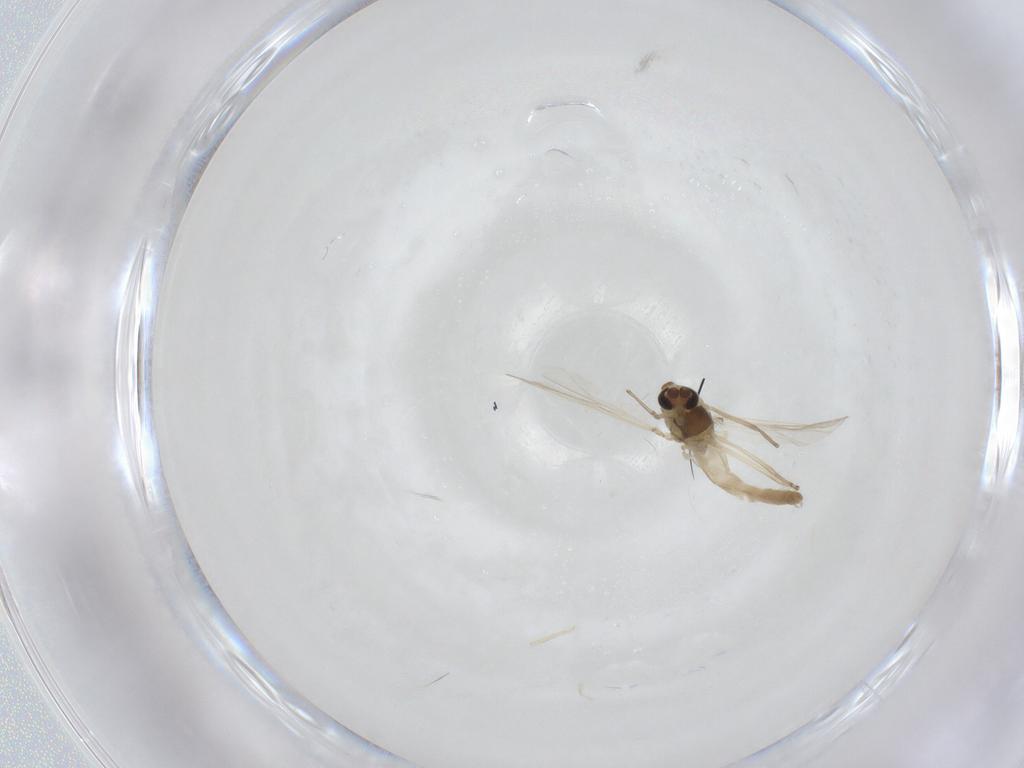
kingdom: Animalia
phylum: Arthropoda
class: Insecta
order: Diptera
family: Chironomidae
